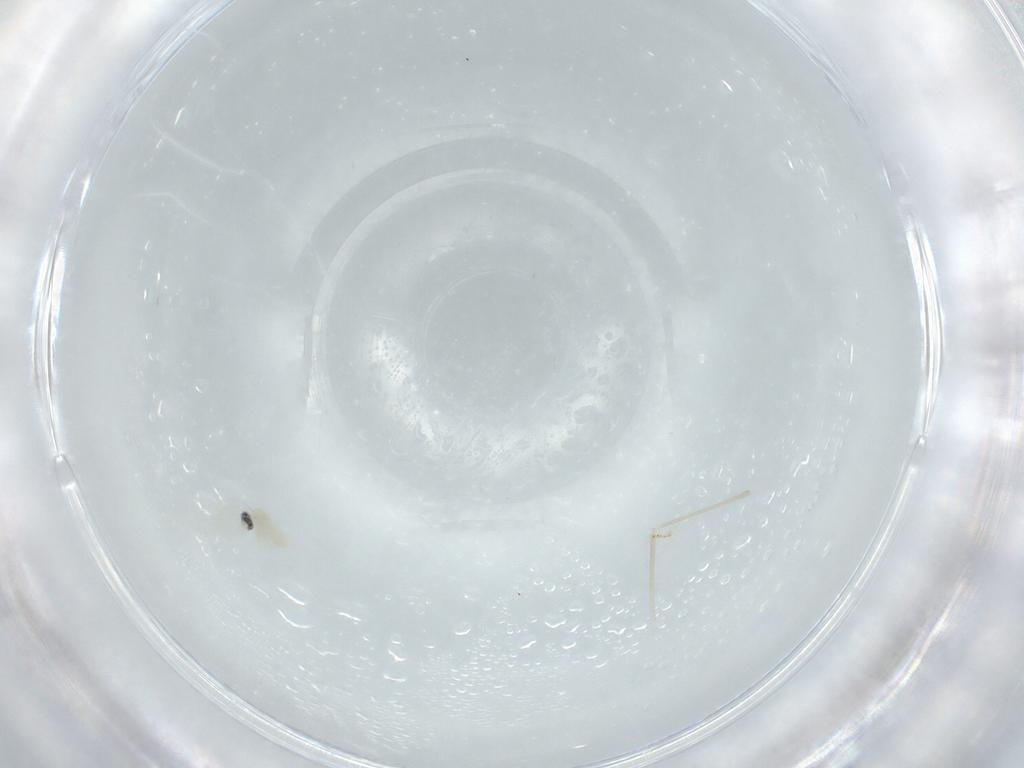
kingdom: Animalia
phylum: Arthropoda
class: Insecta
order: Diptera
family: Cecidomyiidae
